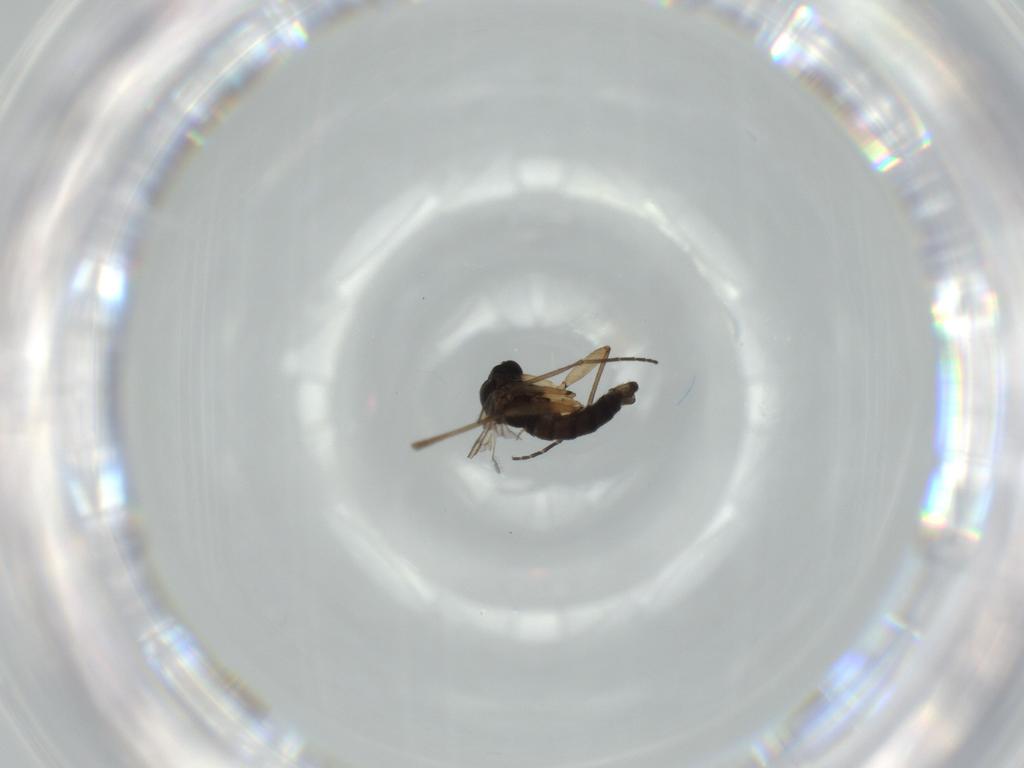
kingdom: Animalia
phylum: Arthropoda
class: Insecta
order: Diptera
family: Sciaridae
